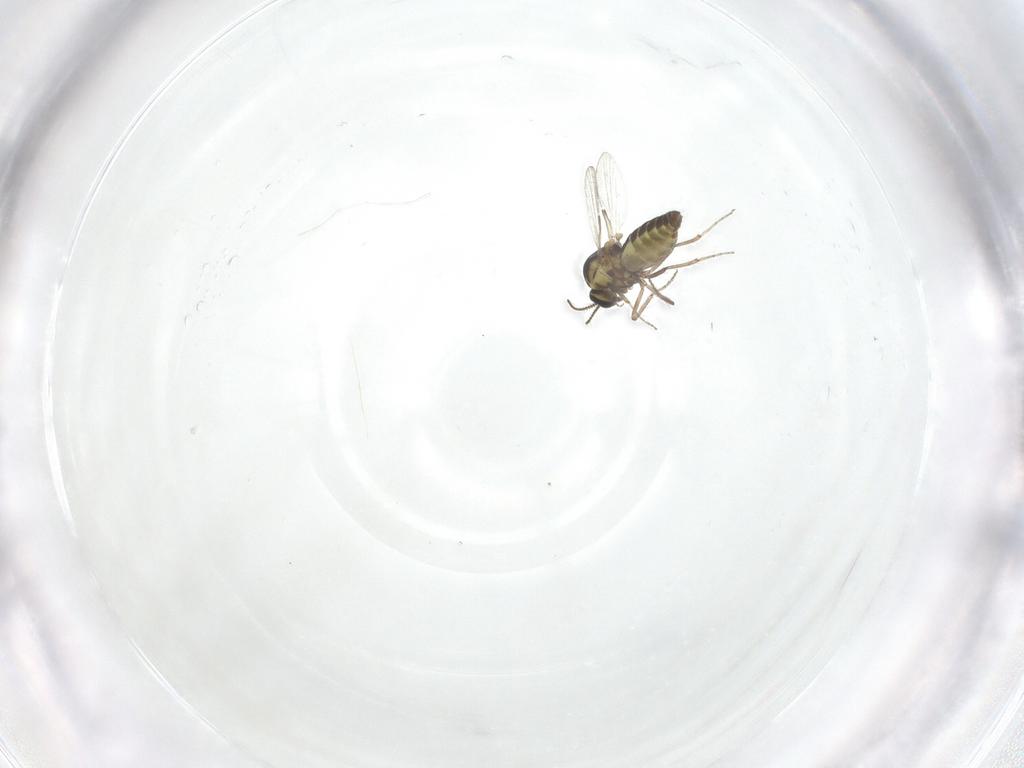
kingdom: Animalia
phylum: Arthropoda
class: Insecta
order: Diptera
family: Ceratopogonidae
